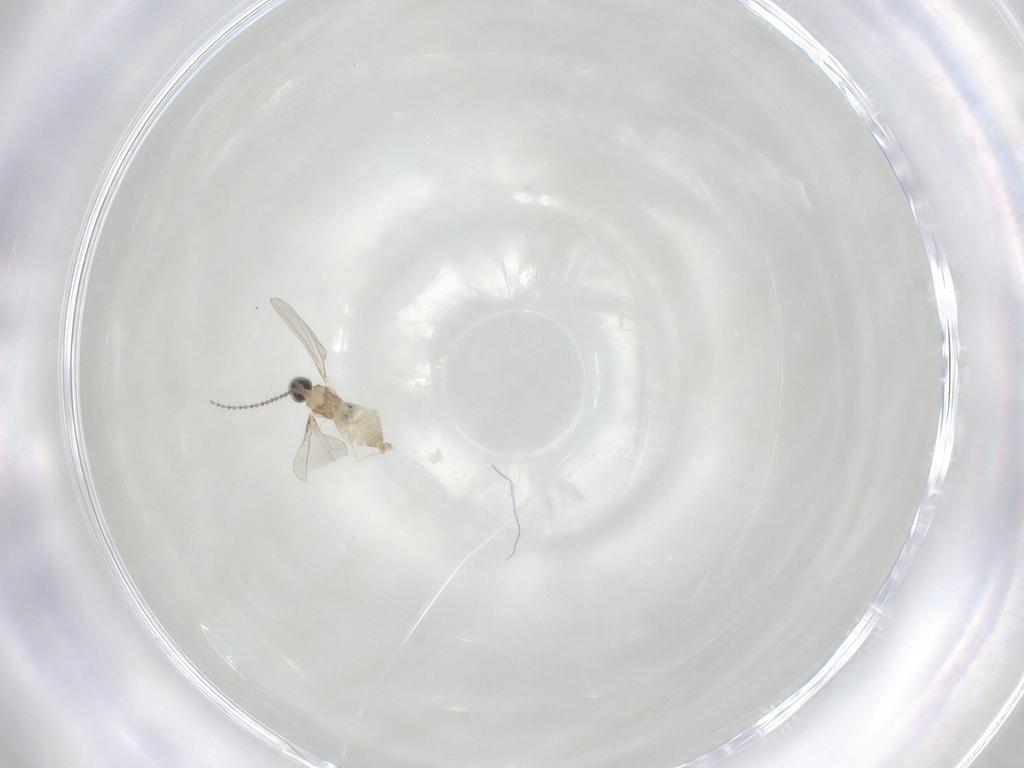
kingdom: Animalia
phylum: Arthropoda
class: Insecta
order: Diptera
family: Cecidomyiidae
